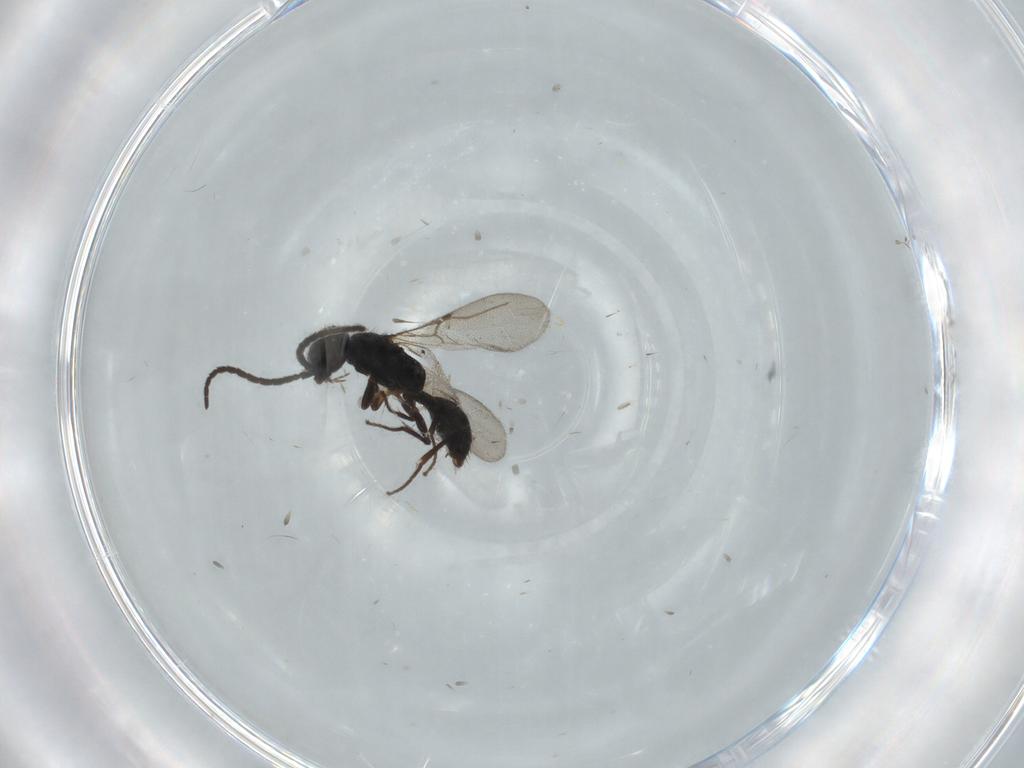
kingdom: Animalia
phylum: Arthropoda
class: Insecta
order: Hymenoptera
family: Bethylidae
